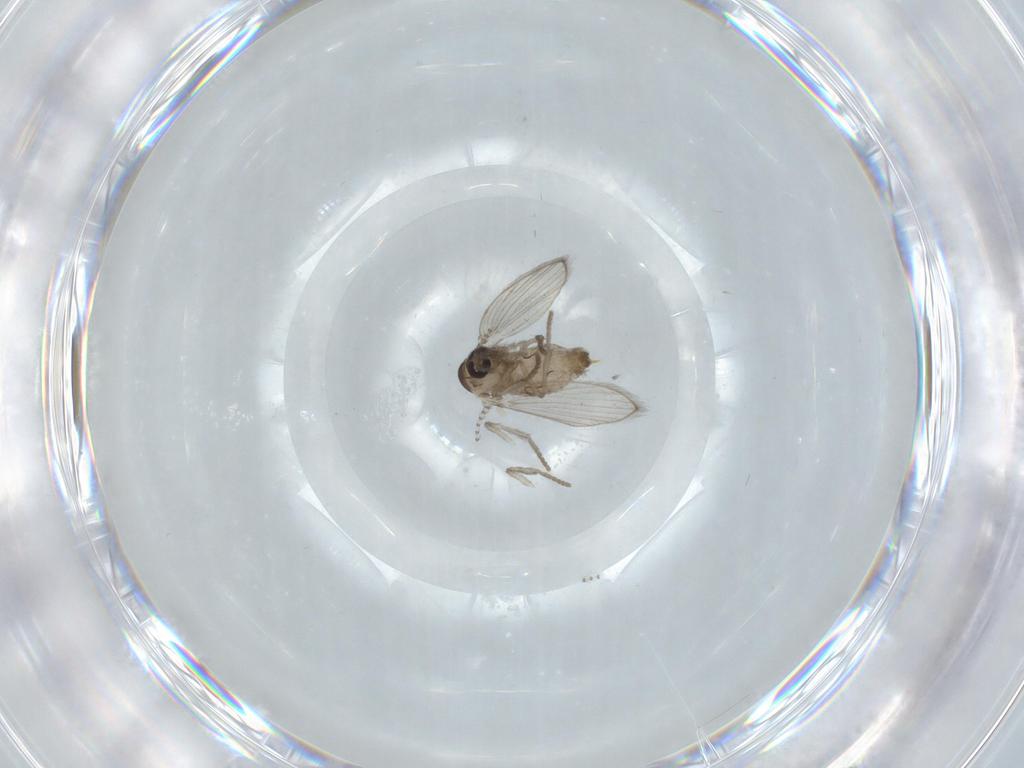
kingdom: Animalia
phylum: Arthropoda
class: Insecta
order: Diptera
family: Psychodidae
